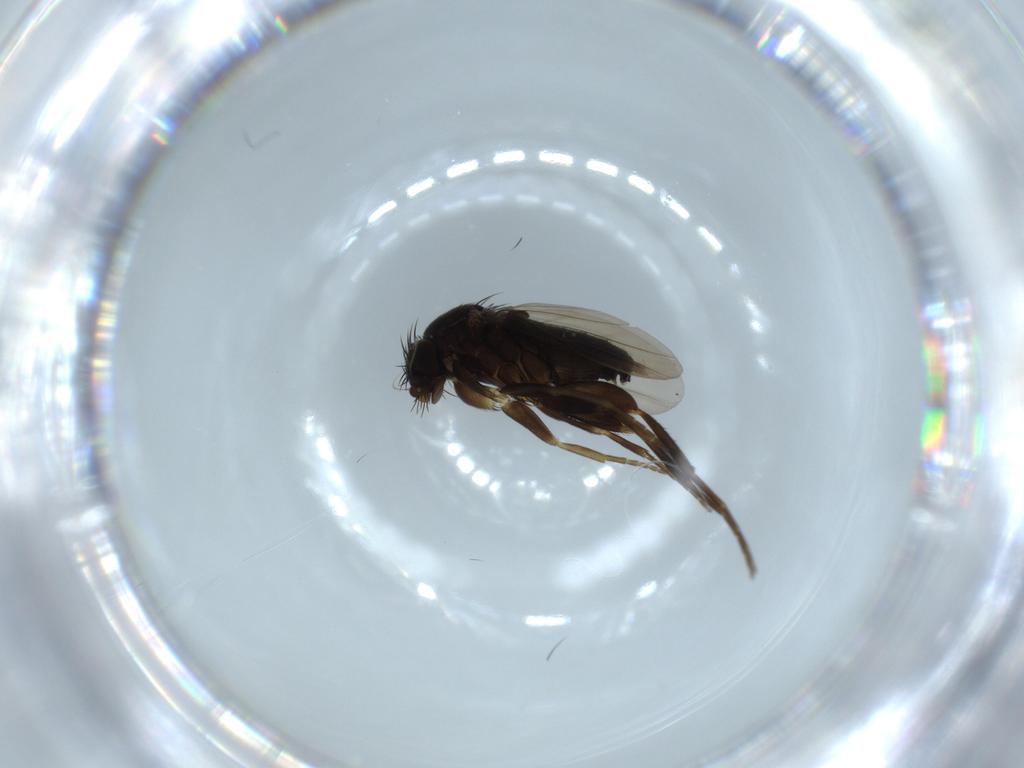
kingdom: Animalia
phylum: Arthropoda
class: Insecta
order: Diptera
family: Phoridae
